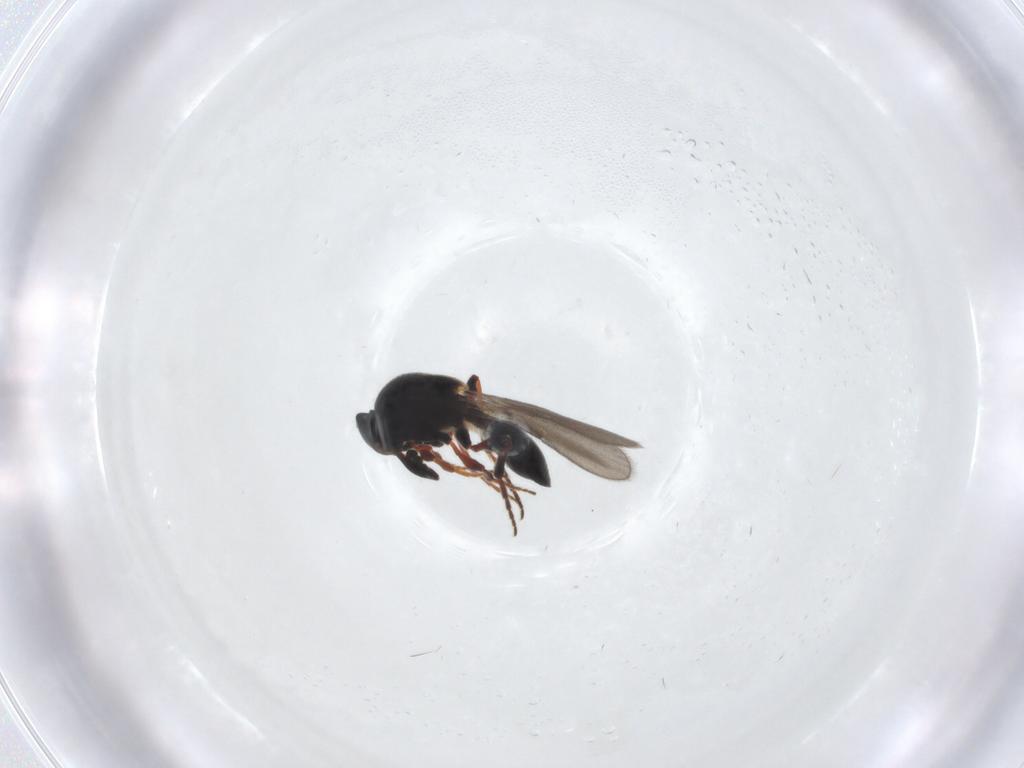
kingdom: Animalia
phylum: Arthropoda
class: Insecta
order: Hymenoptera
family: Platygastridae
